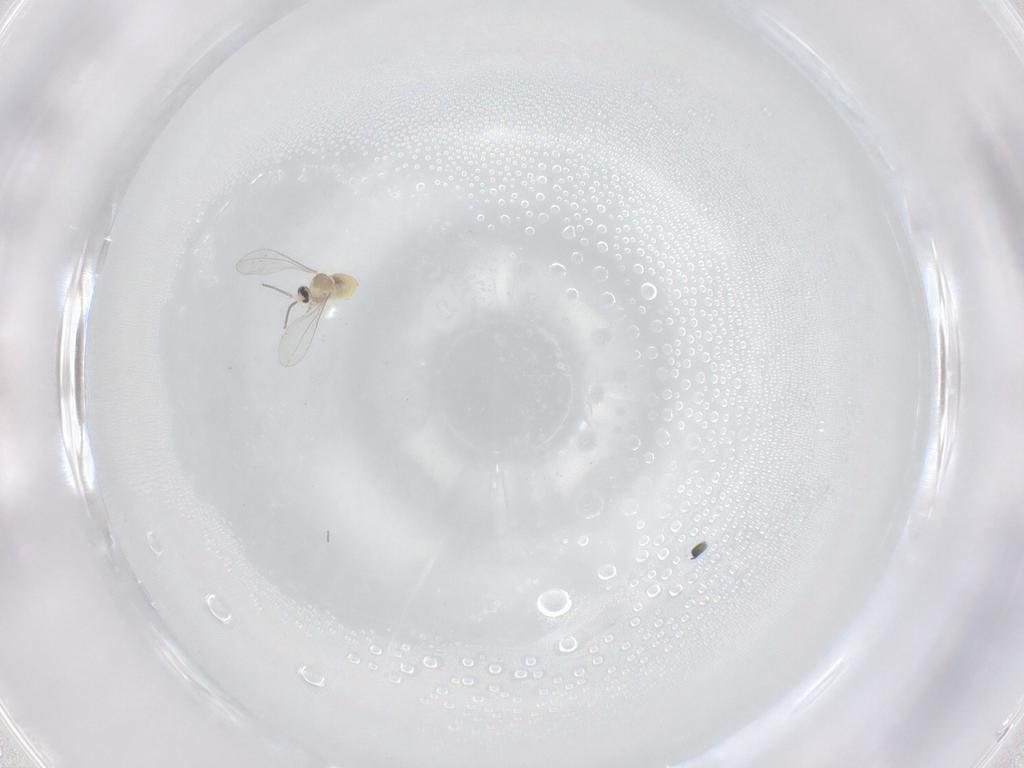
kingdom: Animalia
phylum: Arthropoda
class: Insecta
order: Diptera
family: Cecidomyiidae
